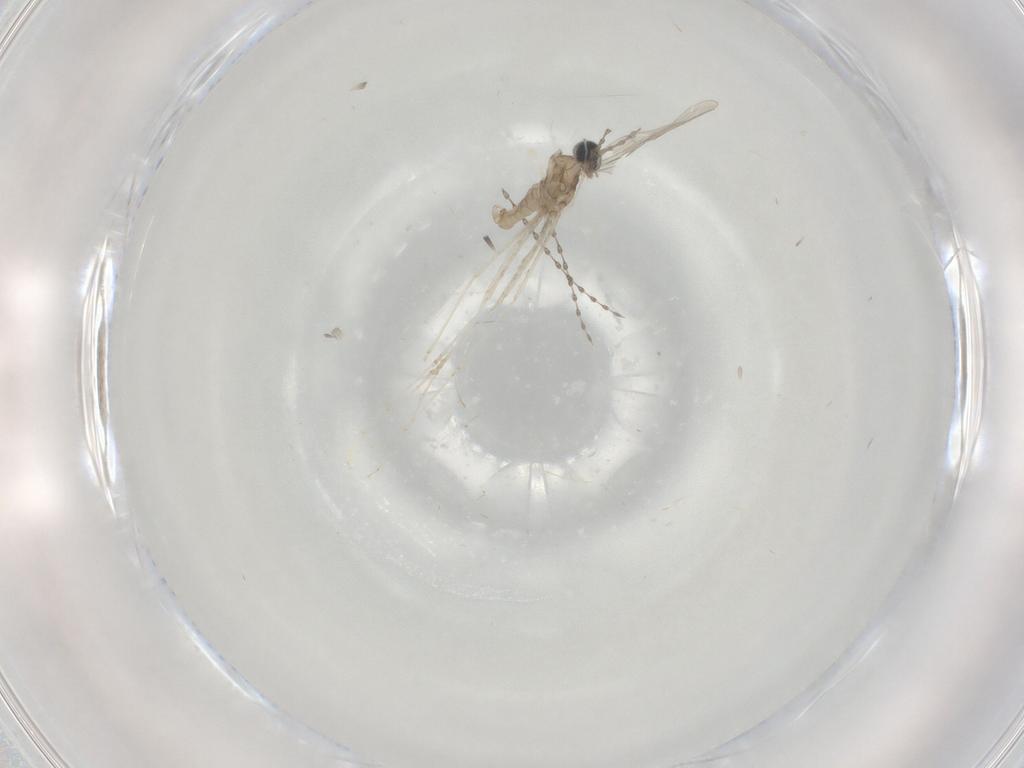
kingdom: Animalia
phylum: Arthropoda
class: Insecta
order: Diptera
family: Cecidomyiidae
